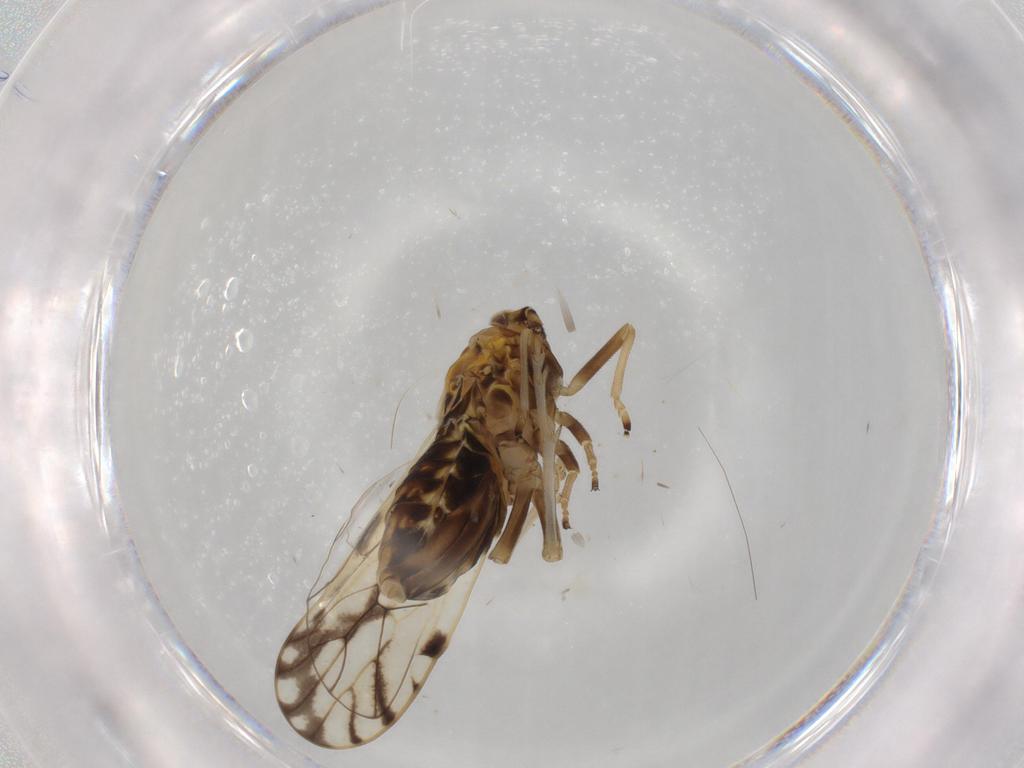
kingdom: Animalia
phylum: Arthropoda
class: Insecta
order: Hemiptera
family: Delphacidae
